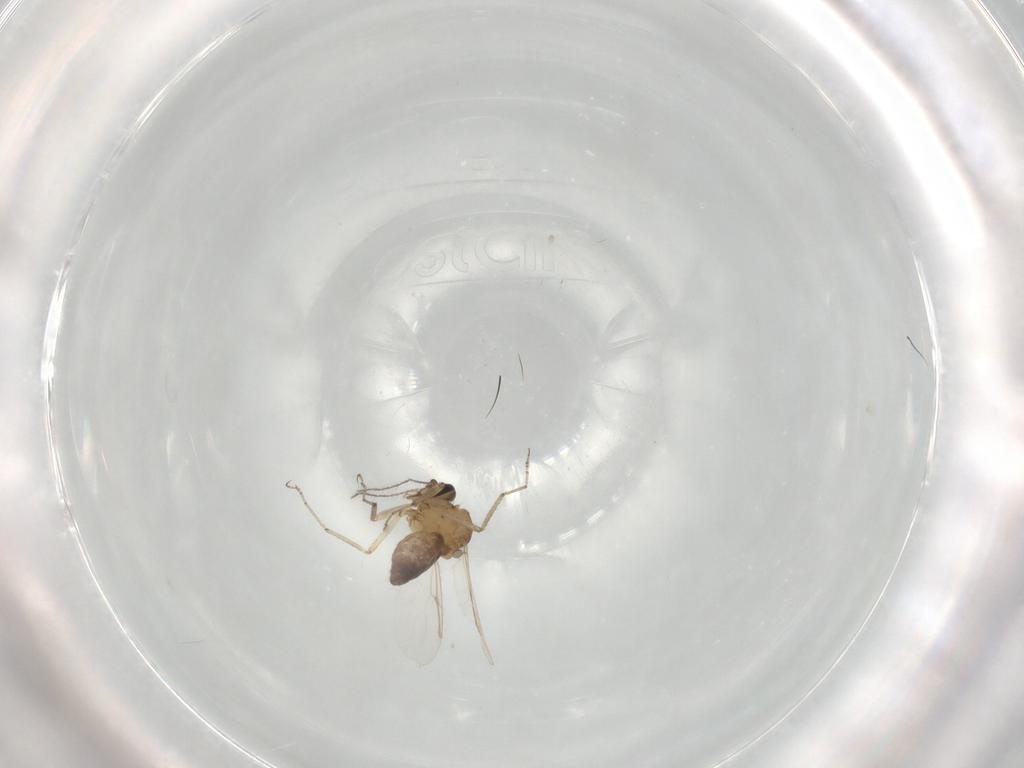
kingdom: Animalia
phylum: Arthropoda
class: Insecta
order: Diptera
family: Ceratopogonidae
